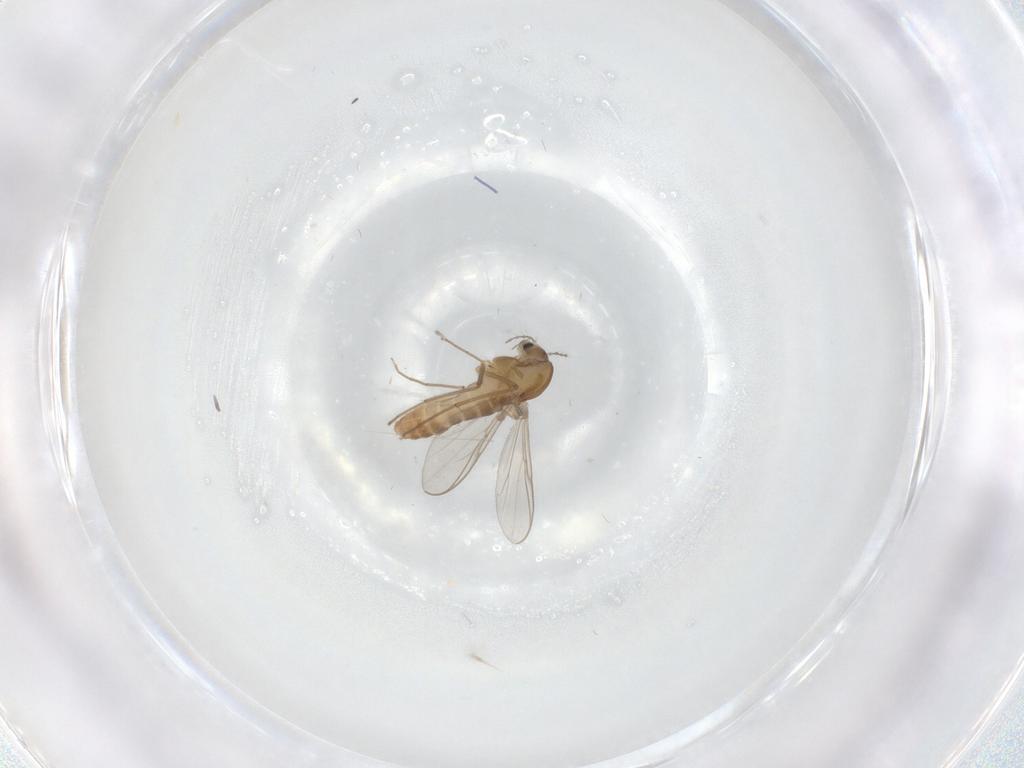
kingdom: Animalia
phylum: Arthropoda
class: Insecta
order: Diptera
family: Chironomidae
